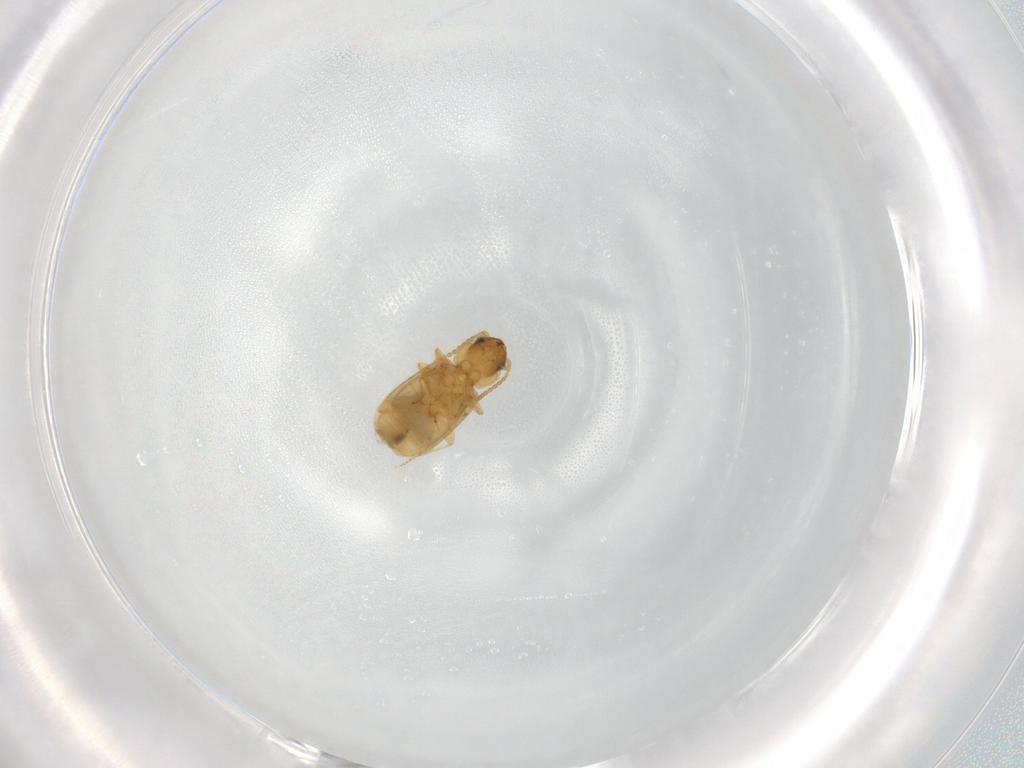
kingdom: Animalia
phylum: Arthropoda
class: Insecta
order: Coleoptera
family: Carabidae
